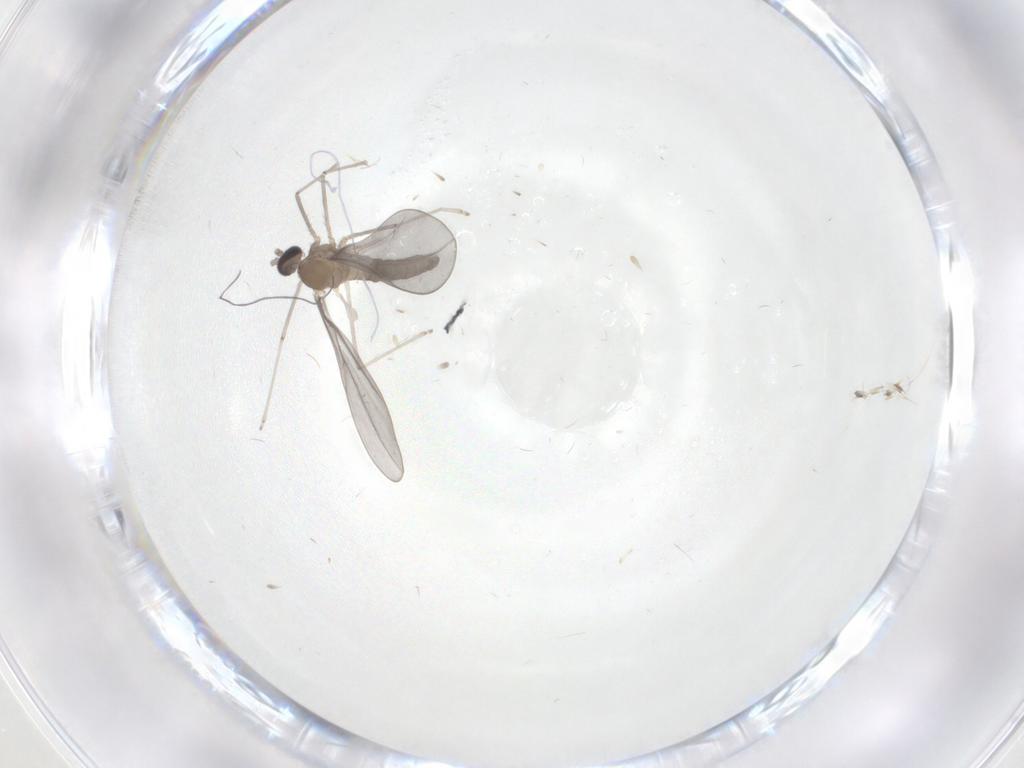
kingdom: Animalia
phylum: Arthropoda
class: Insecta
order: Diptera
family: Cecidomyiidae
